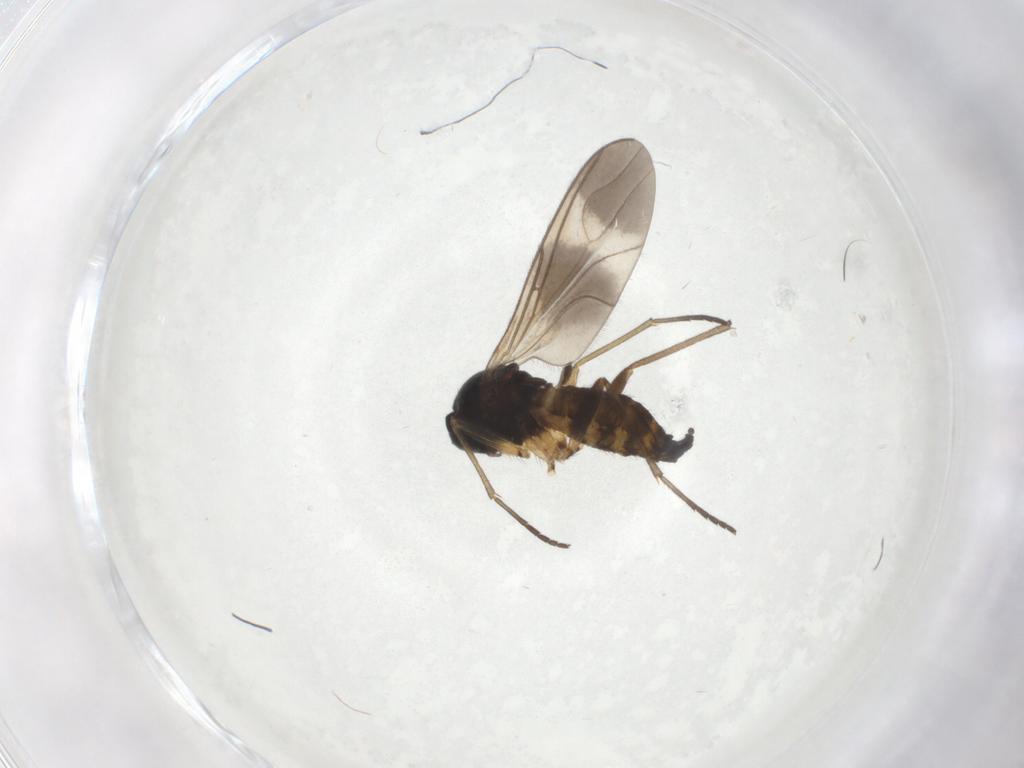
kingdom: Animalia
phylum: Arthropoda
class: Insecta
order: Diptera
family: Sciaridae
